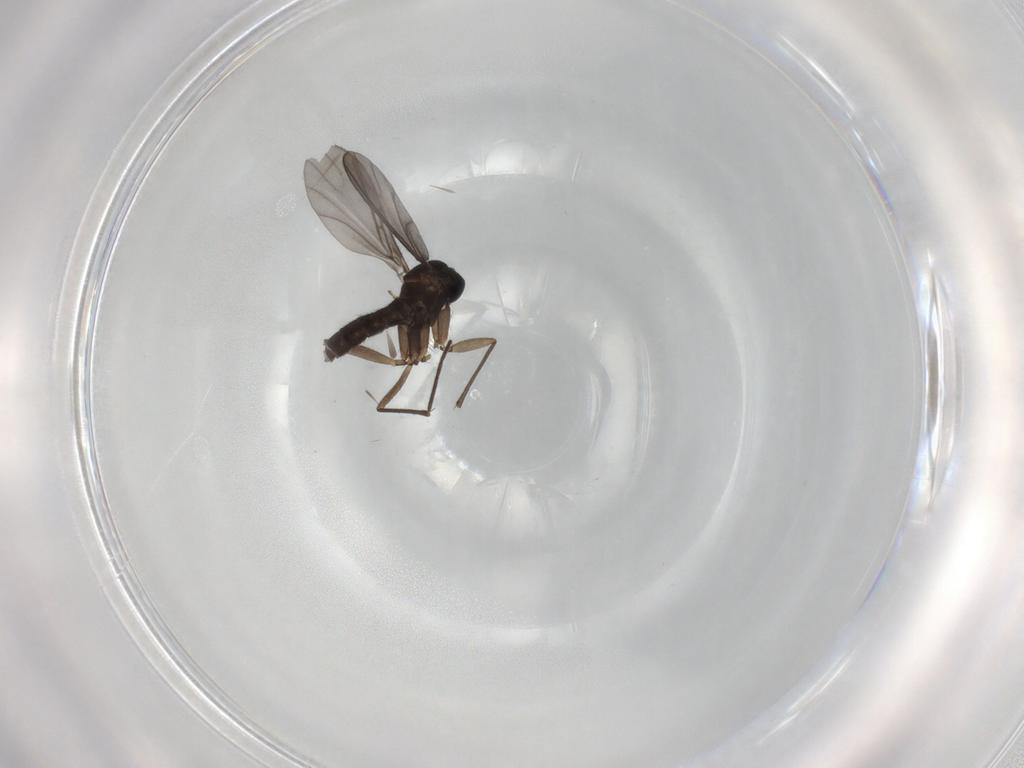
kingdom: Animalia
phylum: Arthropoda
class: Insecta
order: Diptera
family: Sciaridae
